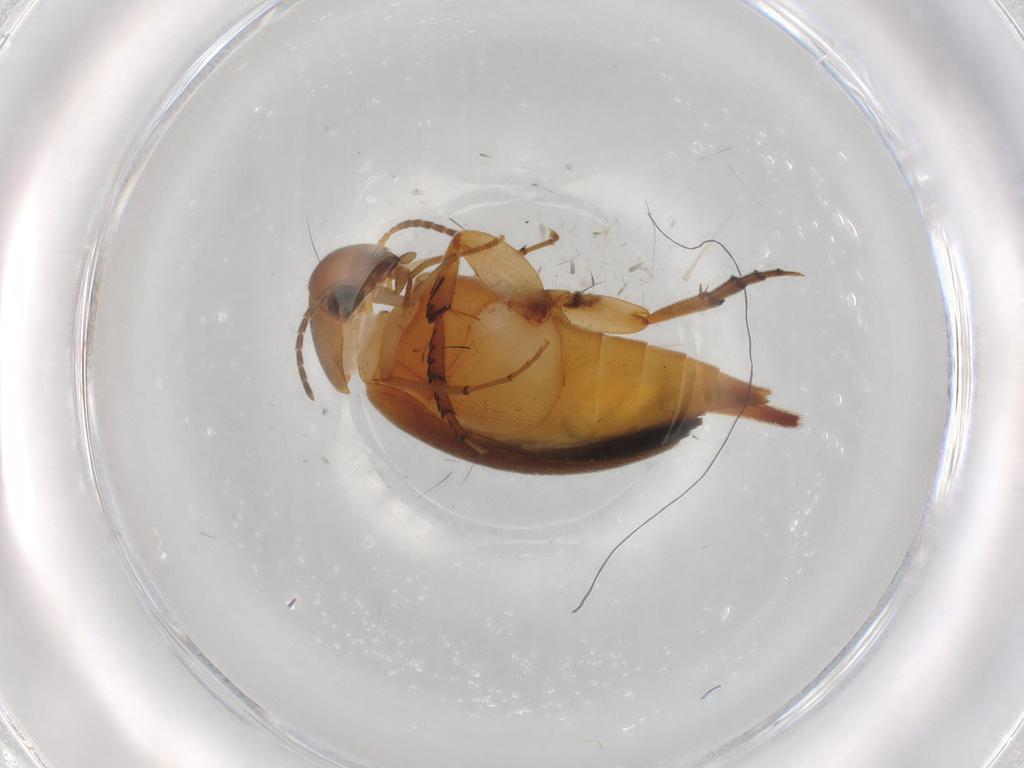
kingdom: Animalia
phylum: Arthropoda
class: Insecta
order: Coleoptera
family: Mordellidae
